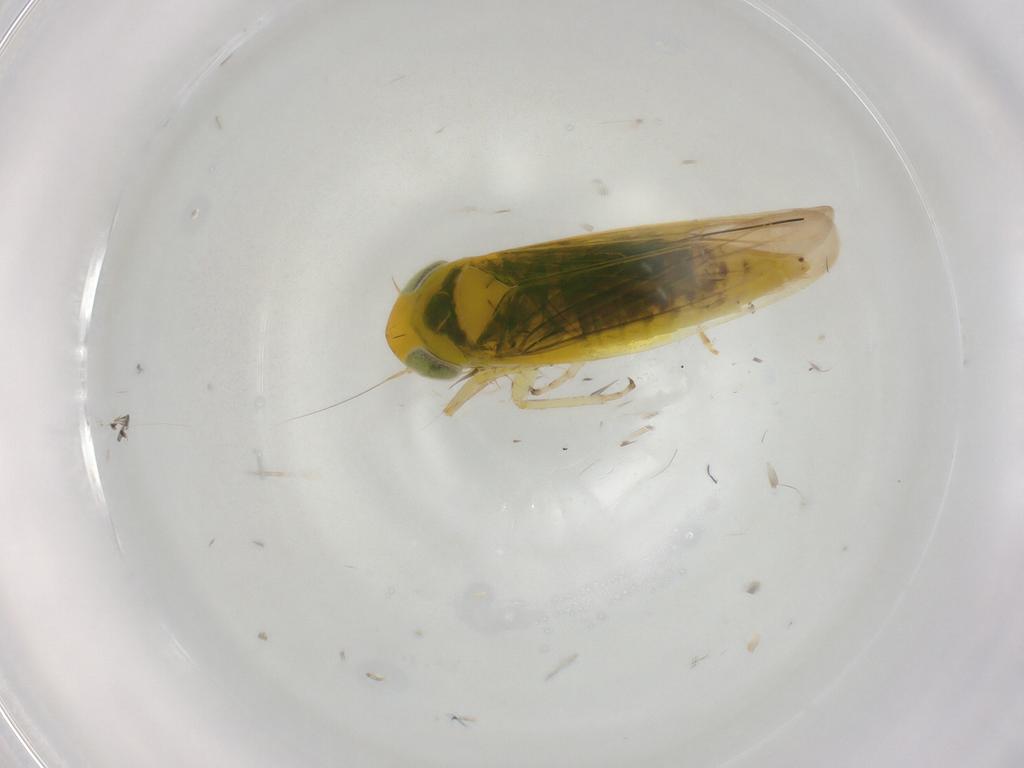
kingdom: Animalia
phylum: Arthropoda
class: Insecta
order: Hemiptera
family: Cicadellidae
